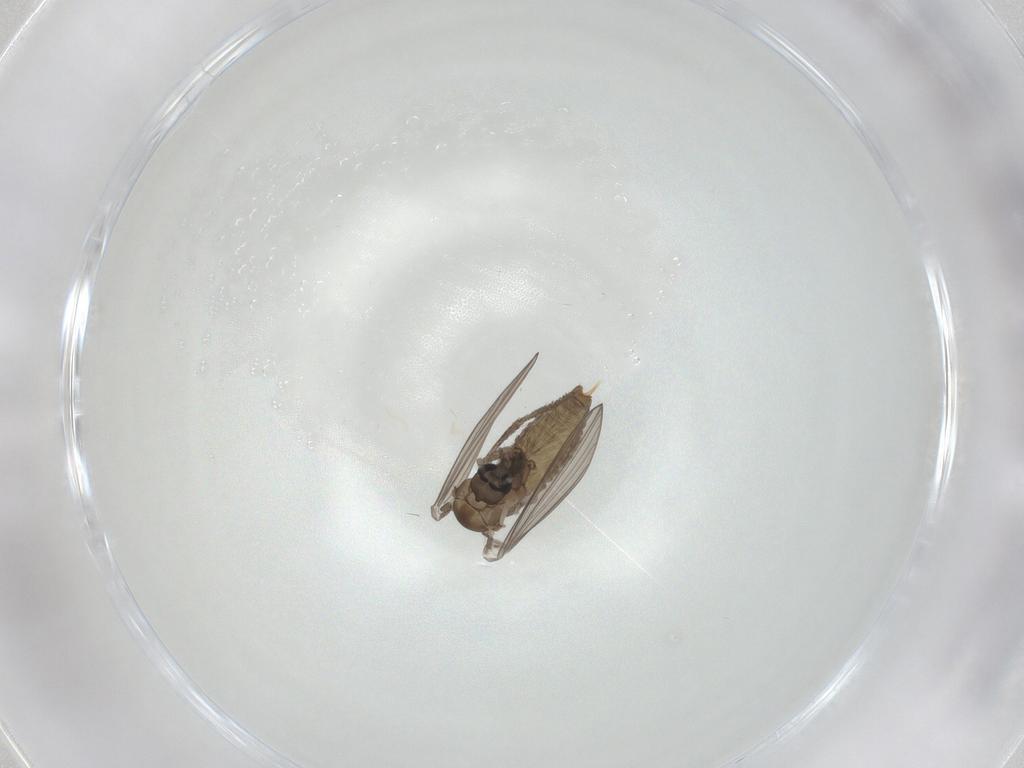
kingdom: Animalia
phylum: Arthropoda
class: Insecta
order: Diptera
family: Psychodidae
